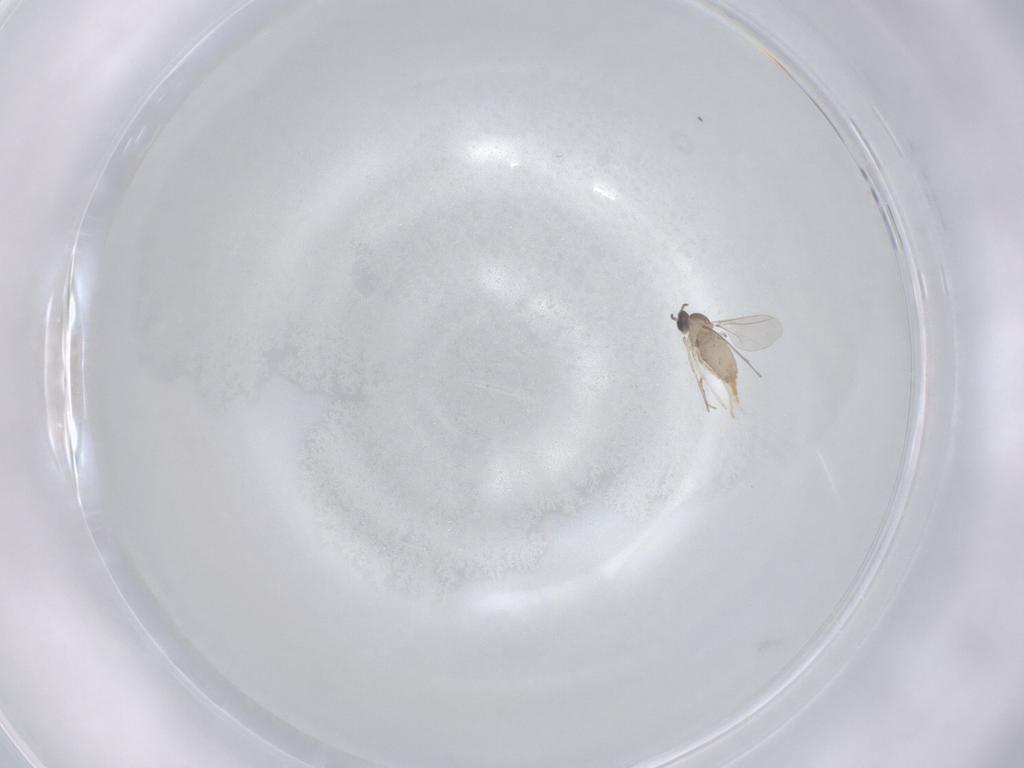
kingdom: Animalia
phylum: Arthropoda
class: Insecta
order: Diptera
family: Cecidomyiidae
